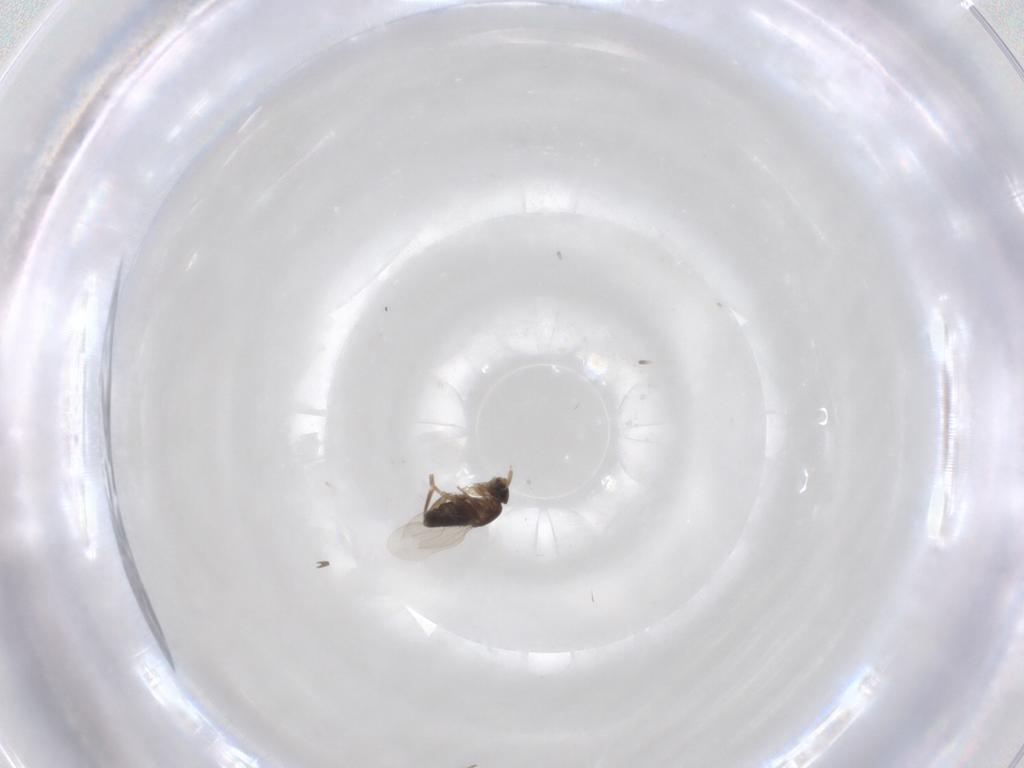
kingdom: Animalia
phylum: Arthropoda
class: Insecta
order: Diptera
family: Phoridae
